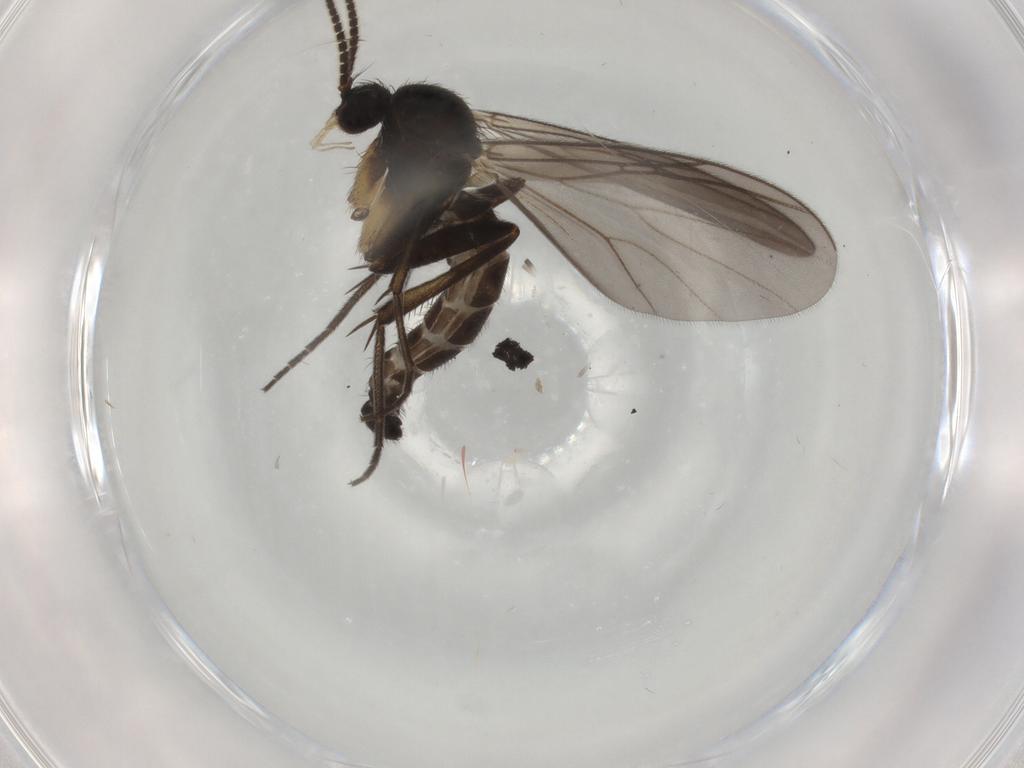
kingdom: Animalia
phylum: Arthropoda
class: Insecta
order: Diptera
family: Mycetophilidae
